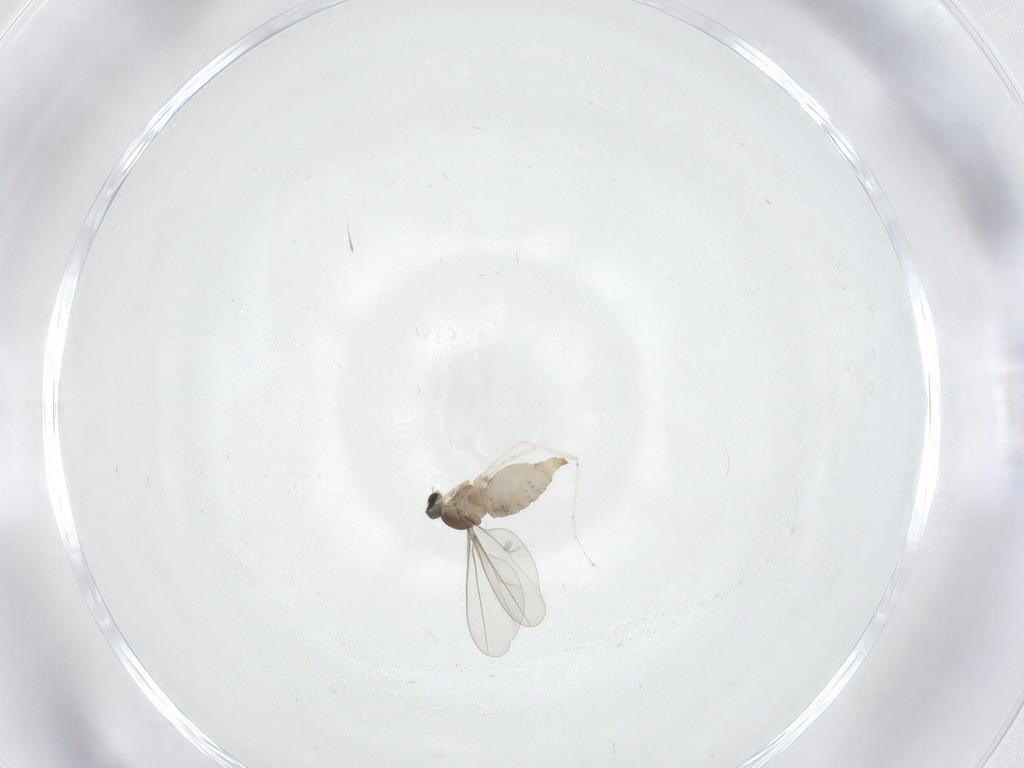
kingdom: Animalia
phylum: Arthropoda
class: Insecta
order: Diptera
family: Cecidomyiidae
